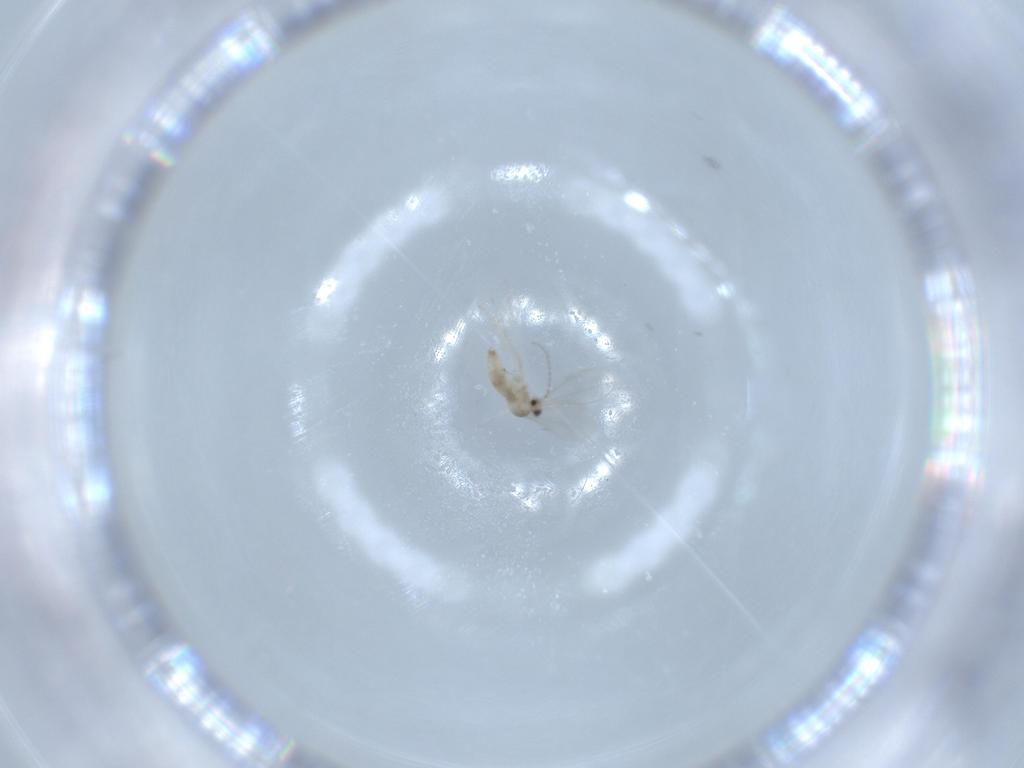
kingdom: Animalia
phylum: Arthropoda
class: Insecta
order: Diptera
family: Cecidomyiidae
